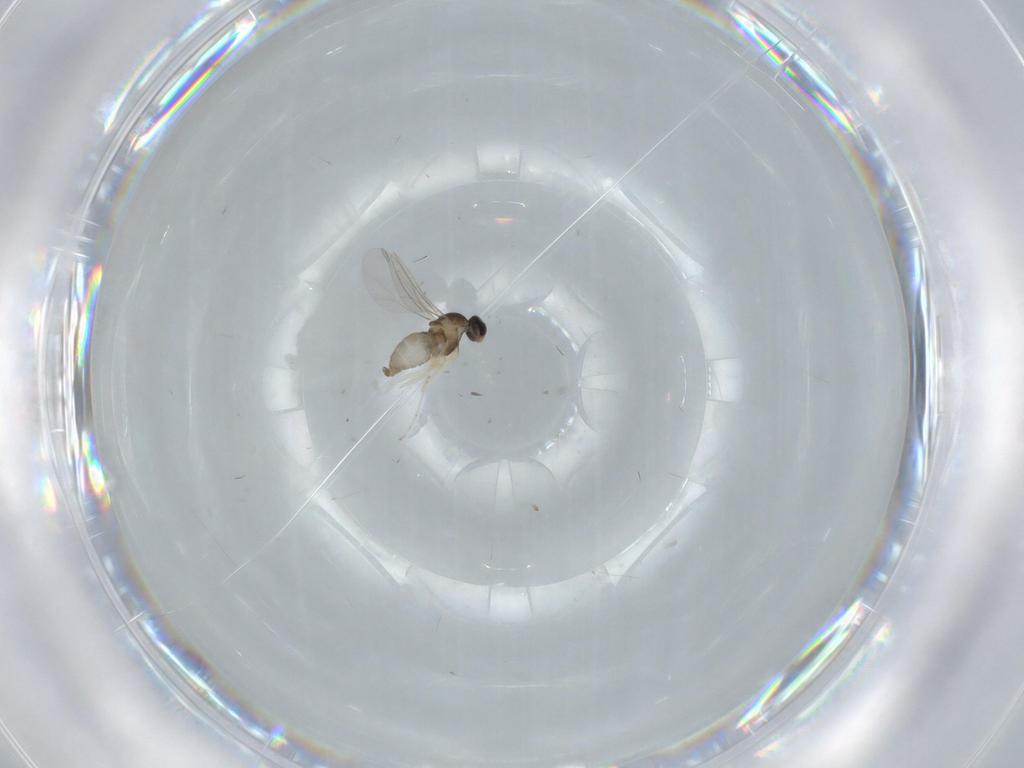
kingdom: Animalia
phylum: Arthropoda
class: Insecta
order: Diptera
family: Cecidomyiidae
